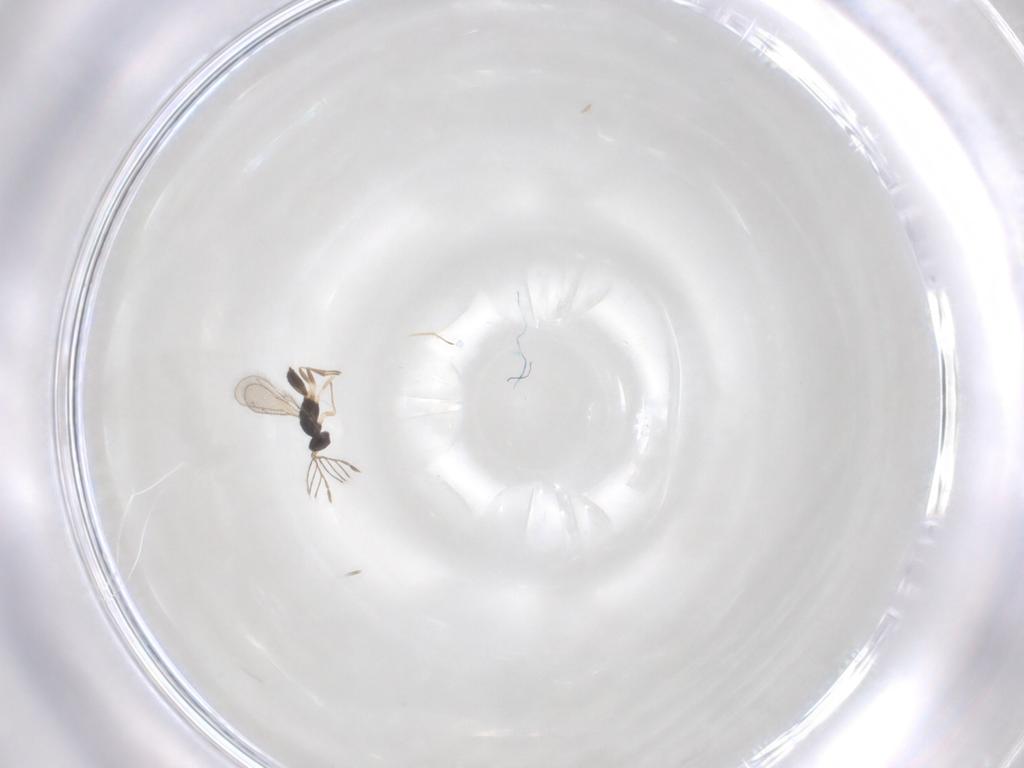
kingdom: Animalia
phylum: Arthropoda
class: Insecta
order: Hymenoptera
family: Eulophidae
